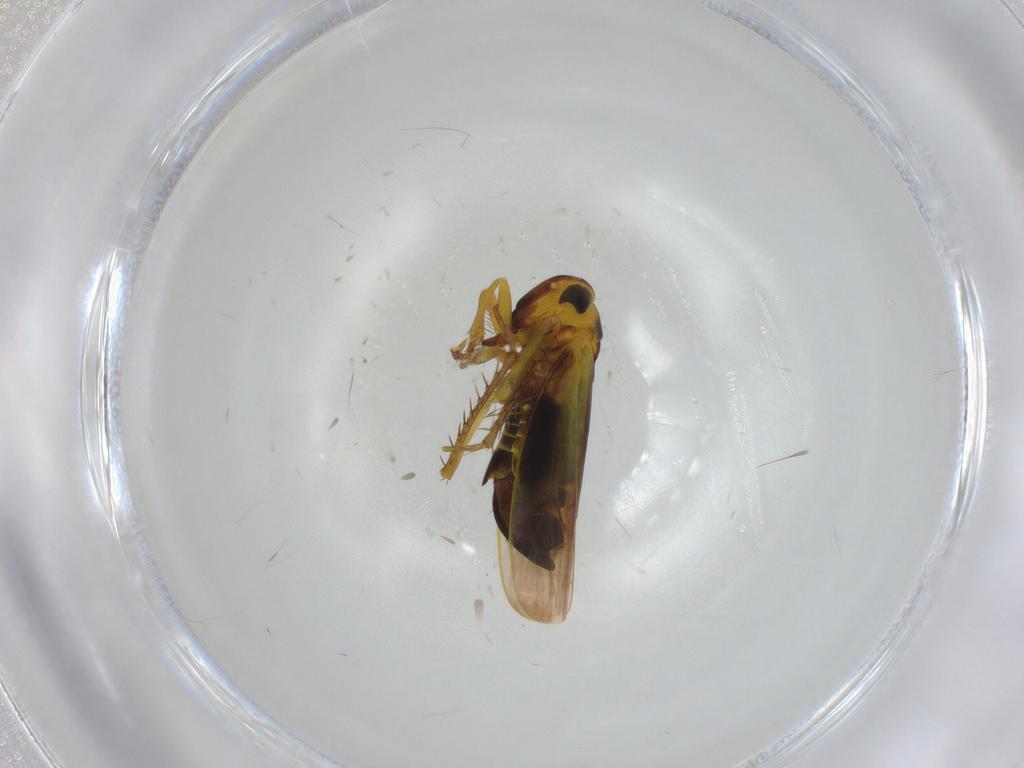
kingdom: Animalia
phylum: Arthropoda
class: Insecta
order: Hemiptera
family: Cicadellidae
